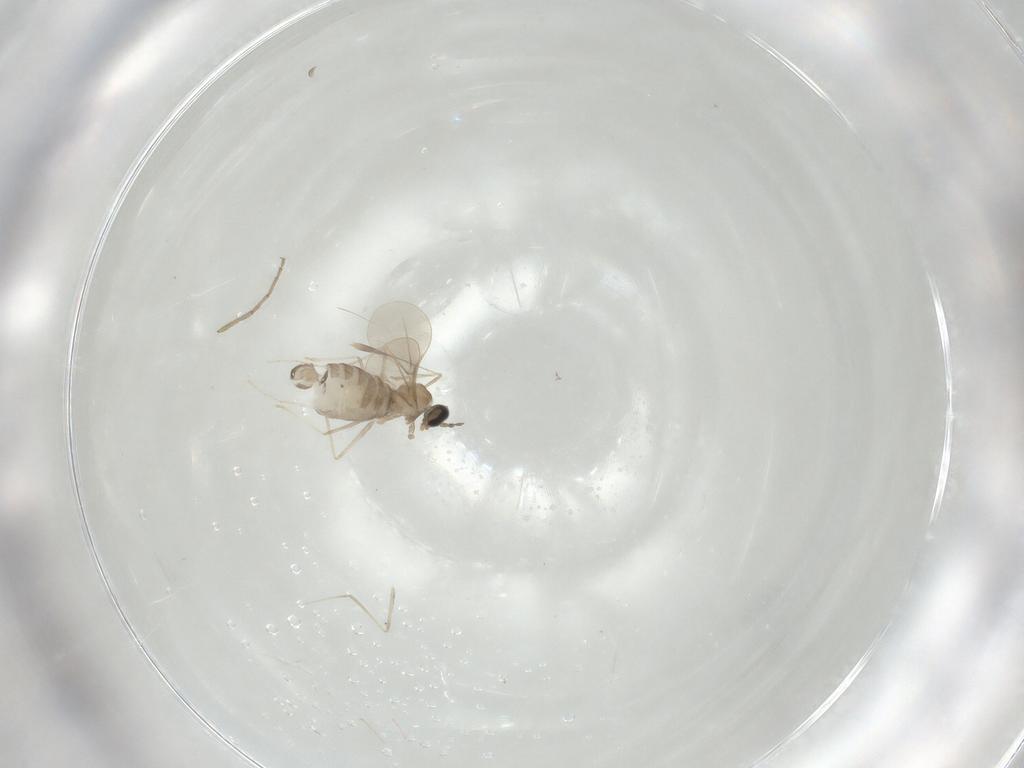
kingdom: Animalia
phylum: Arthropoda
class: Insecta
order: Diptera
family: Cecidomyiidae
